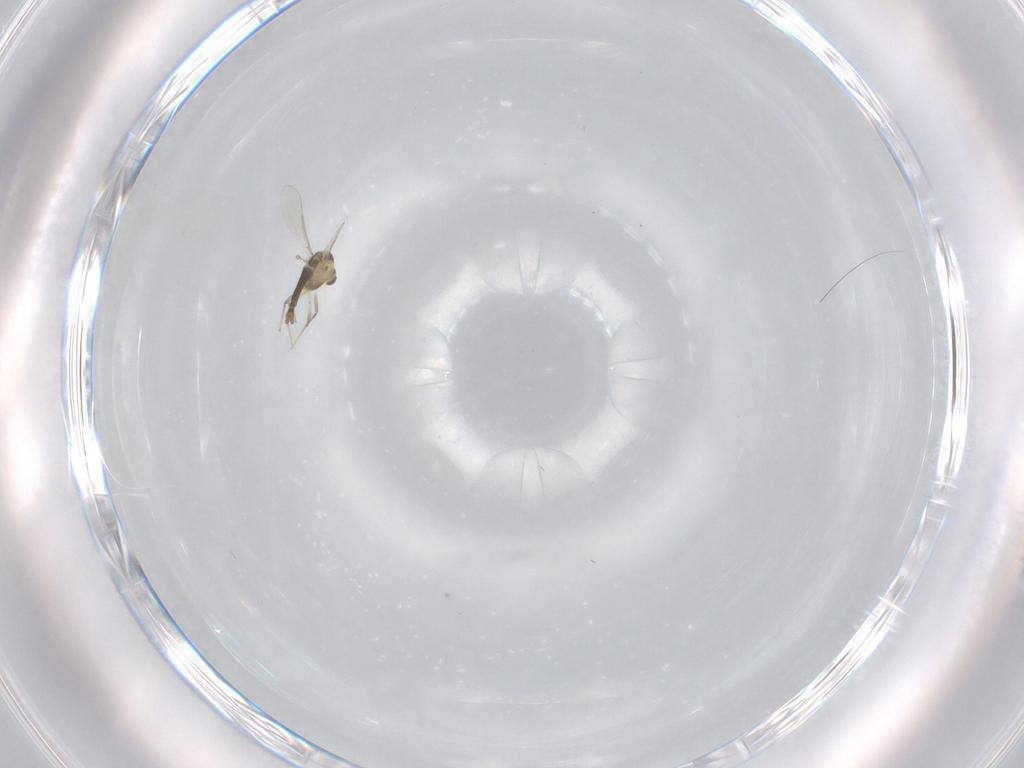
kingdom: Animalia
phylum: Arthropoda
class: Insecta
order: Diptera
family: Chironomidae
